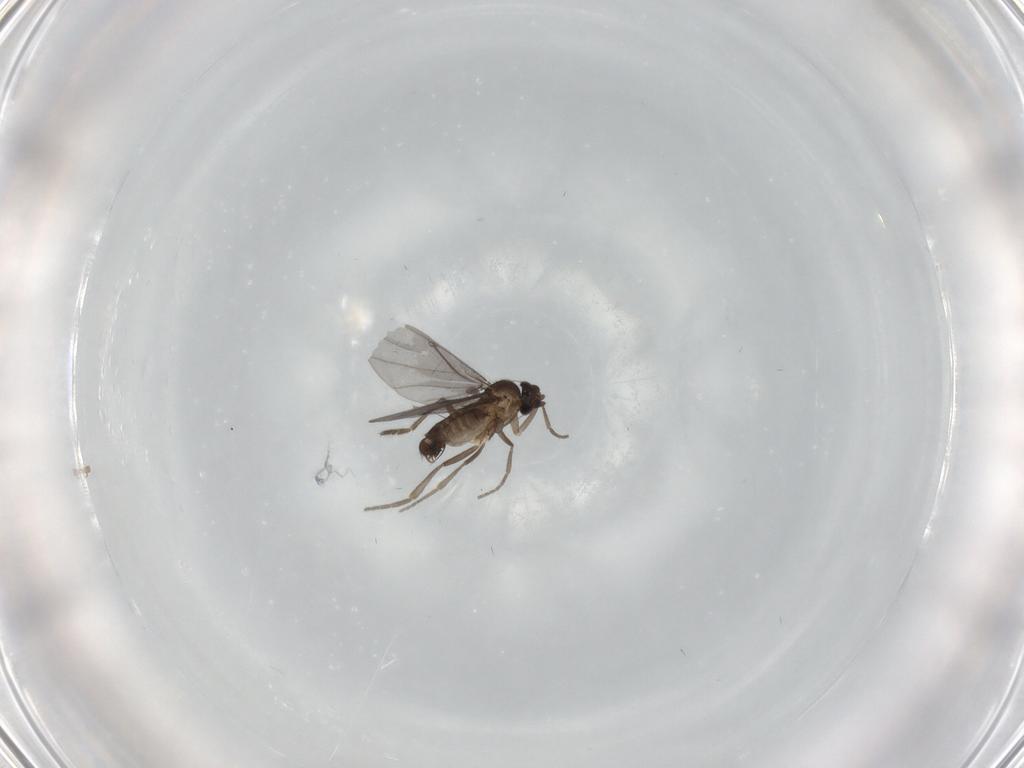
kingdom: Animalia
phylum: Arthropoda
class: Insecta
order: Diptera
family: Phoridae
